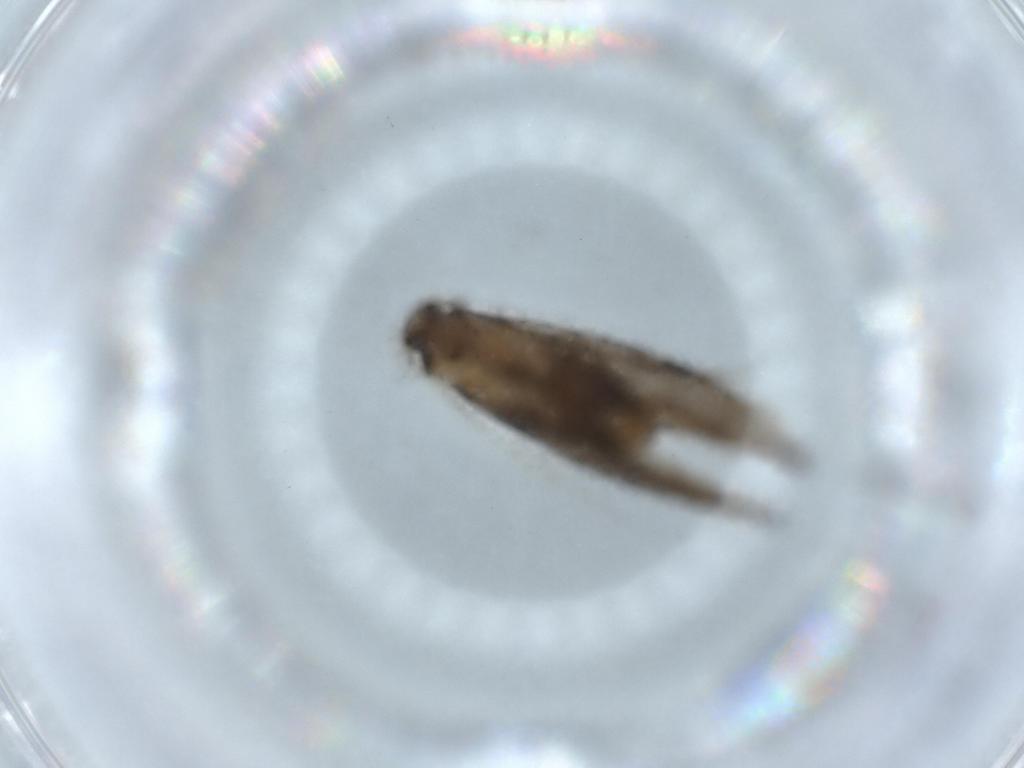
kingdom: Animalia
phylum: Arthropoda
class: Insecta
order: Lepidoptera
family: Tineidae
